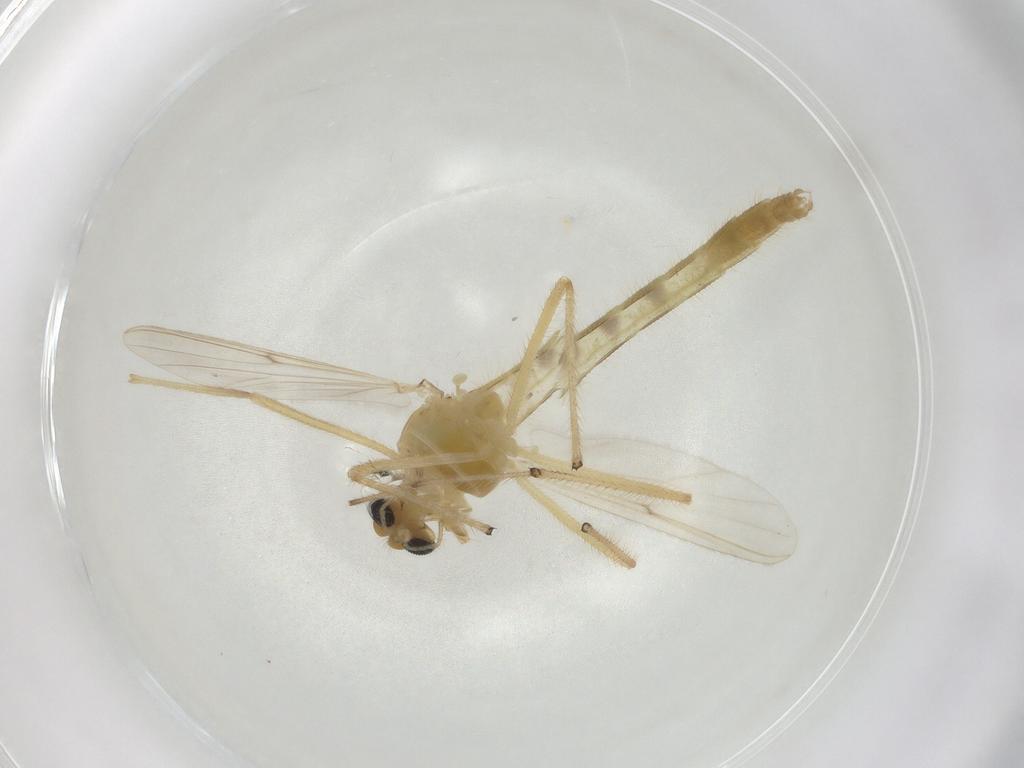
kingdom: Animalia
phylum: Arthropoda
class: Insecta
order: Diptera
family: Chironomidae
